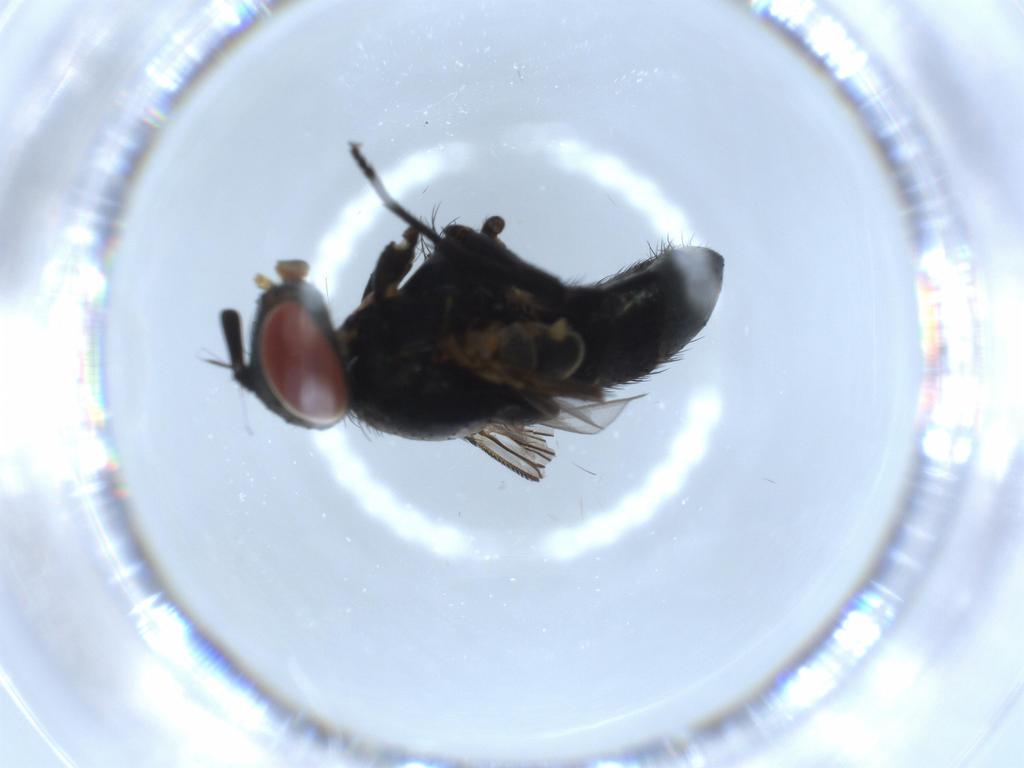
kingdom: Animalia
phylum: Arthropoda
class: Insecta
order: Diptera
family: Tachinidae
